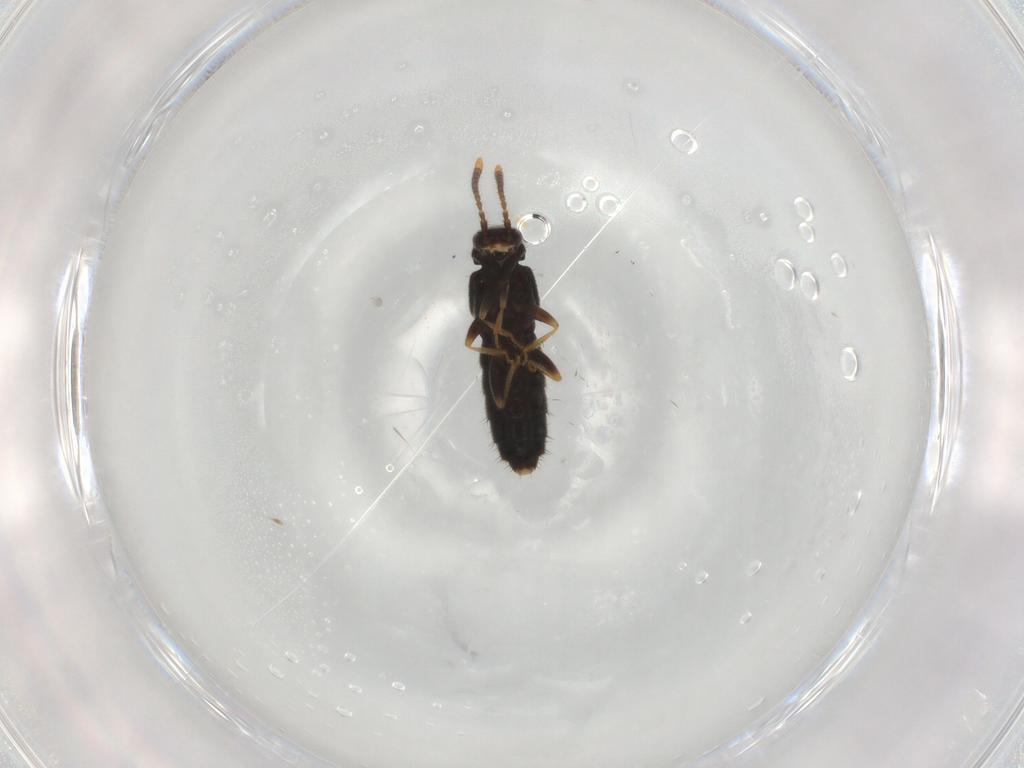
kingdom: Animalia
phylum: Arthropoda
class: Insecta
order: Coleoptera
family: Staphylinidae
